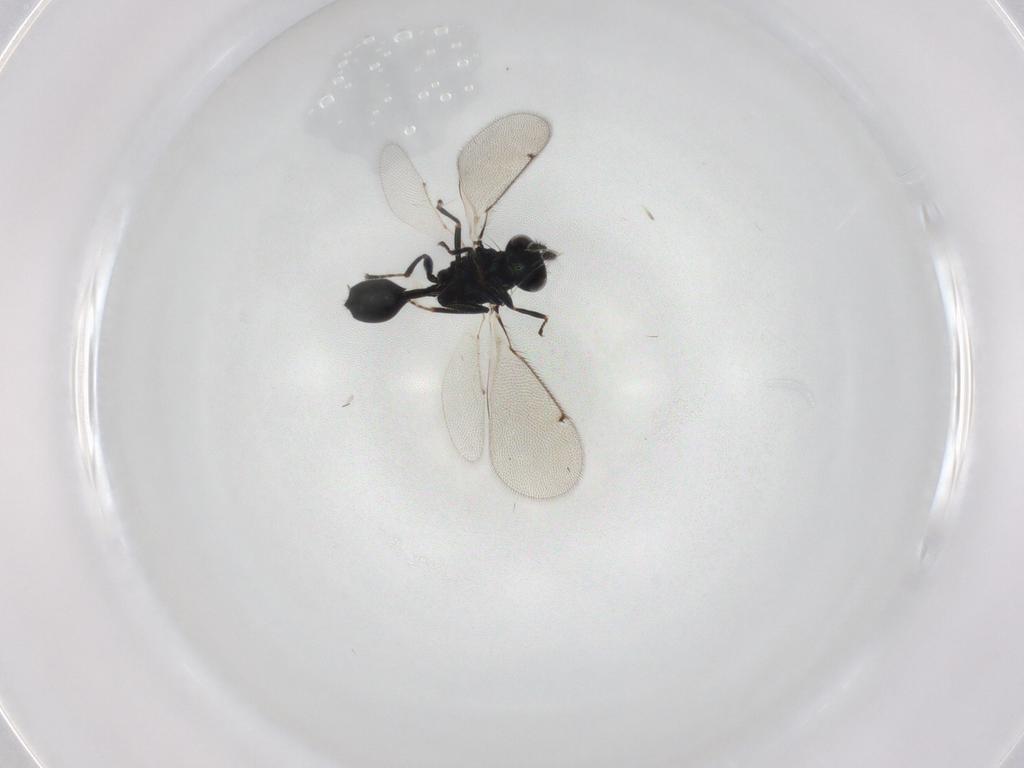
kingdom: Animalia
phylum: Arthropoda
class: Insecta
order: Hymenoptera
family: Eulophidae
